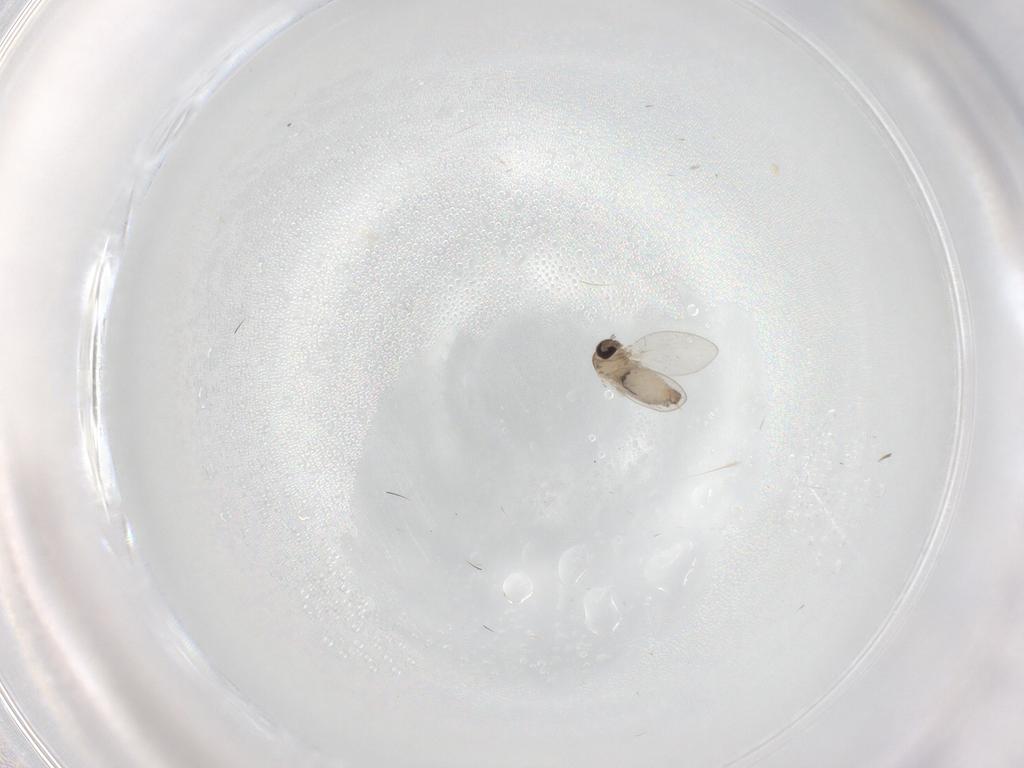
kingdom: Animalia
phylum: Arthropoda
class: Insecta
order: Diptera
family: Psychodidae
